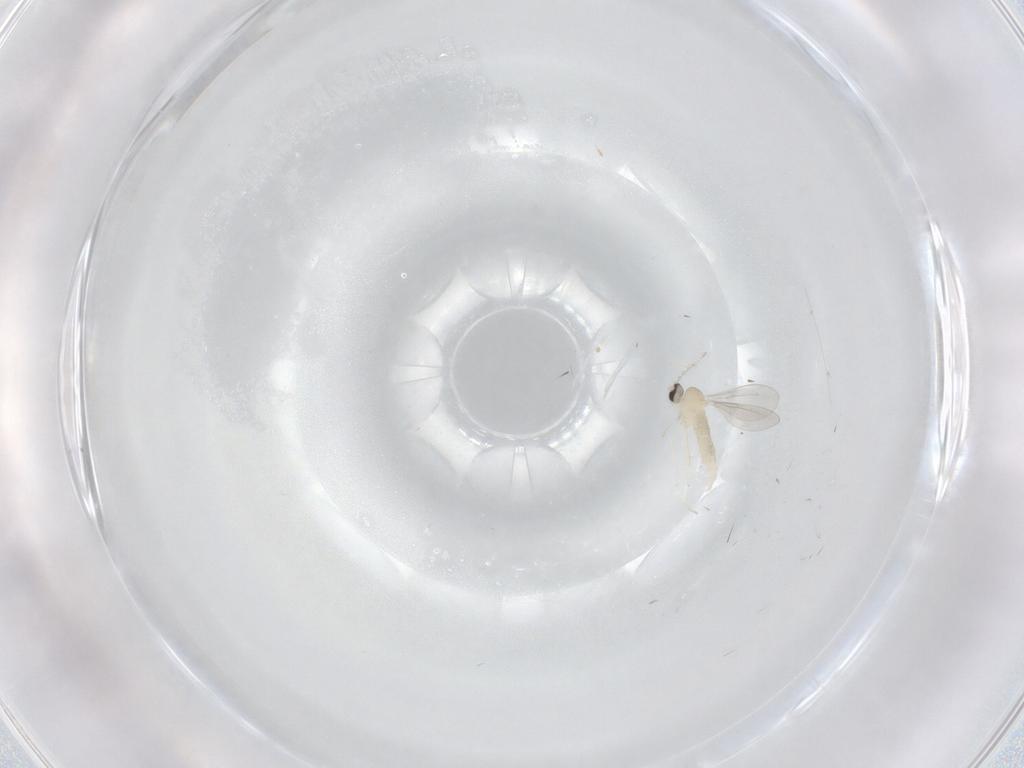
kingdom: Animalia
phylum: Arthropoda
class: Insecta
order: Diptera
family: Cecidomyiidae
